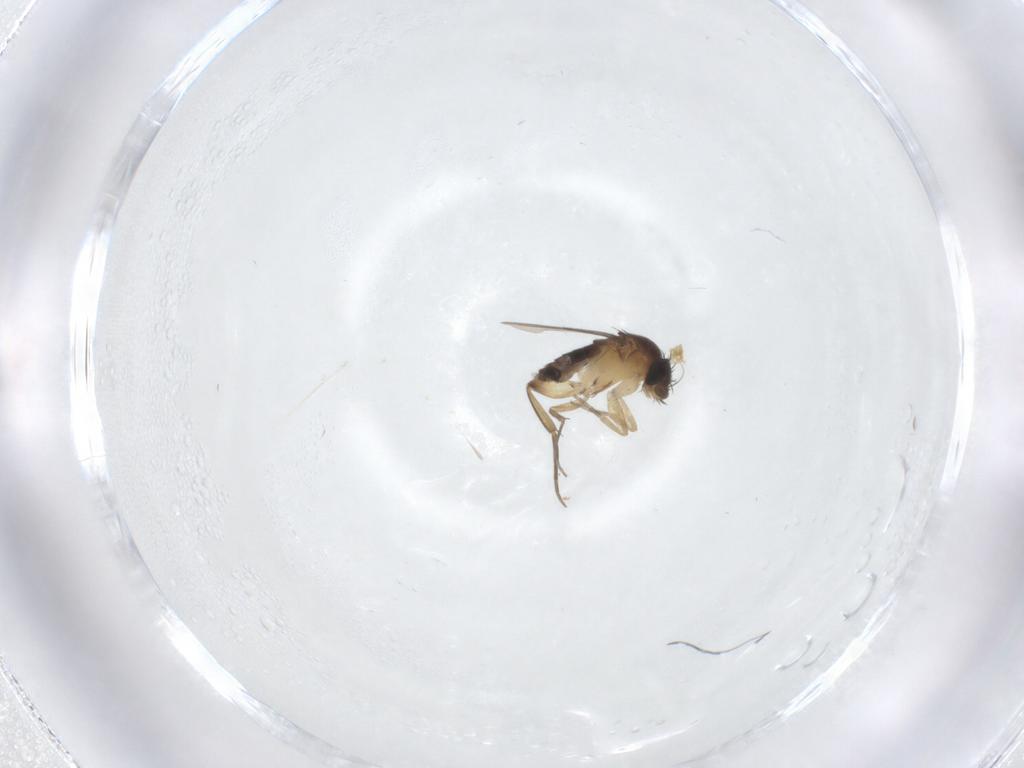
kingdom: Animalia
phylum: Arthropoda
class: Insecta
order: Diptera
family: Phoridae
